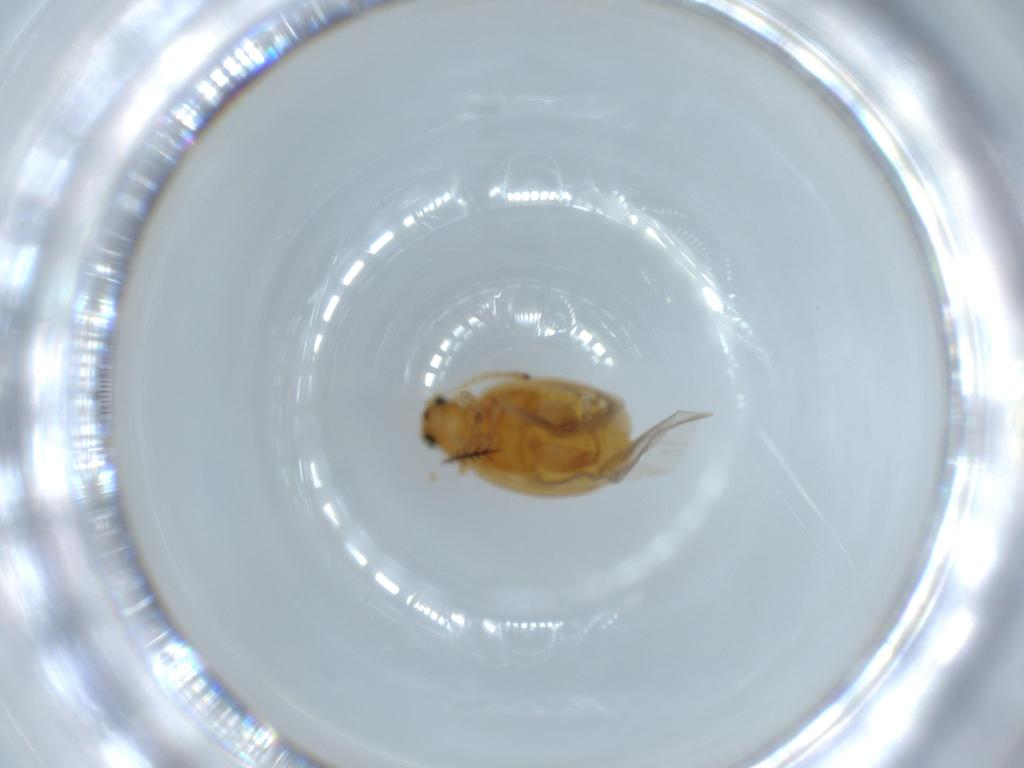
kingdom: Animalia
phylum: Arthropoda
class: Insecta
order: Coleoptera
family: Chrysomelidae
